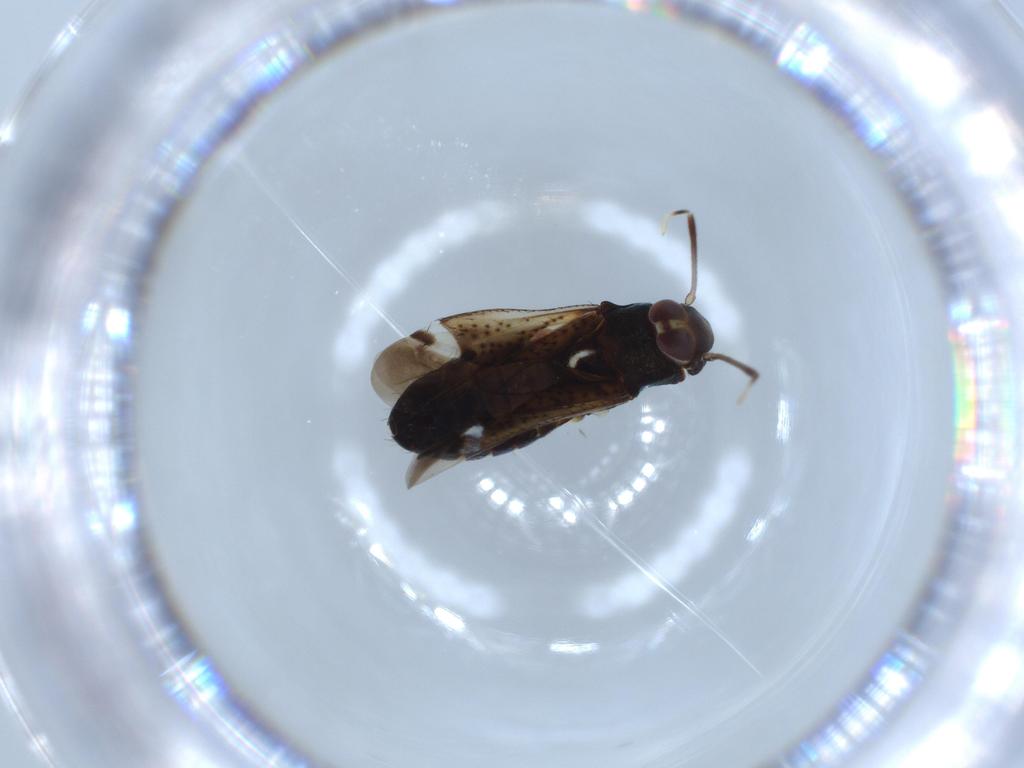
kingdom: Animalia
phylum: Arthropoda
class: Insecta
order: Hemiptera
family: Miridae
